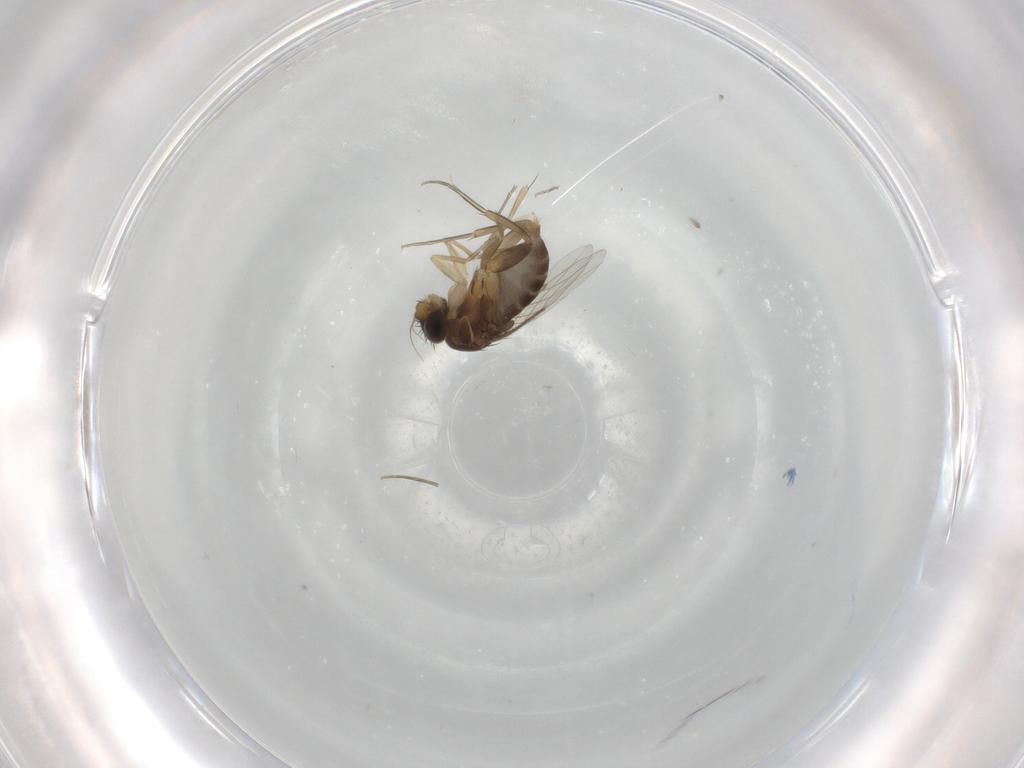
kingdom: Animalia
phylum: Arthropoda
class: Insecta
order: Diptera
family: Phoridae
